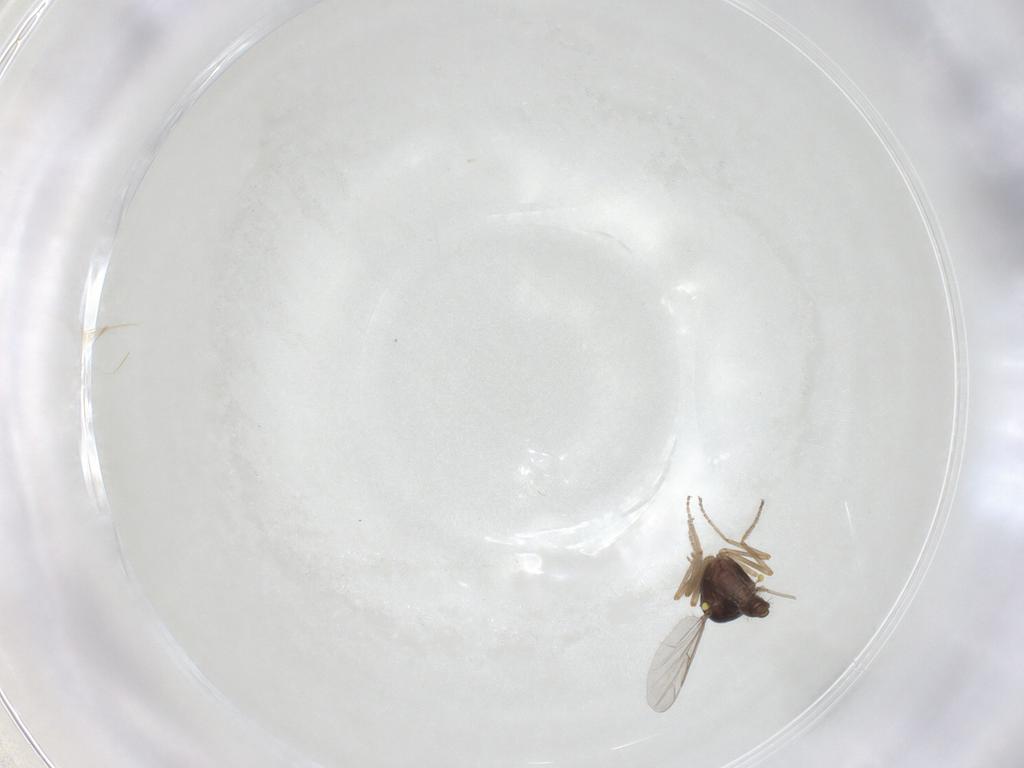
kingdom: Animalia
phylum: Arthropoda
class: Insecta
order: Diptera
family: Ceratopogonidae
